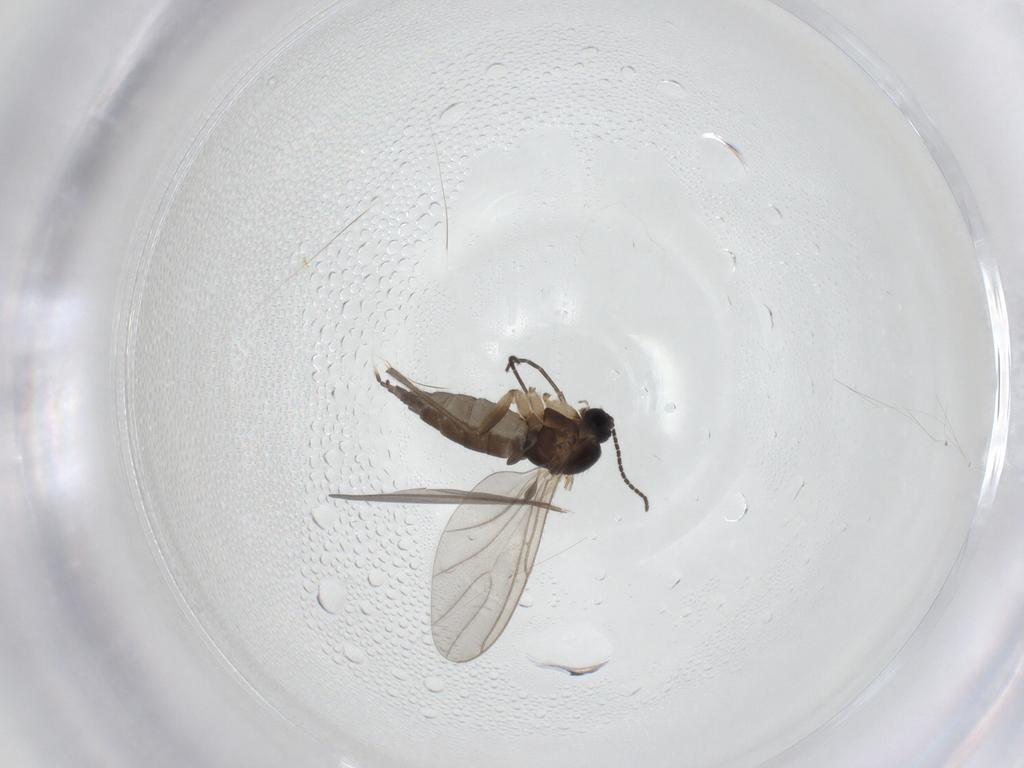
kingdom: Animalia
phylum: Arthropoda
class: Insecta
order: Diptera
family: Sciaridae
